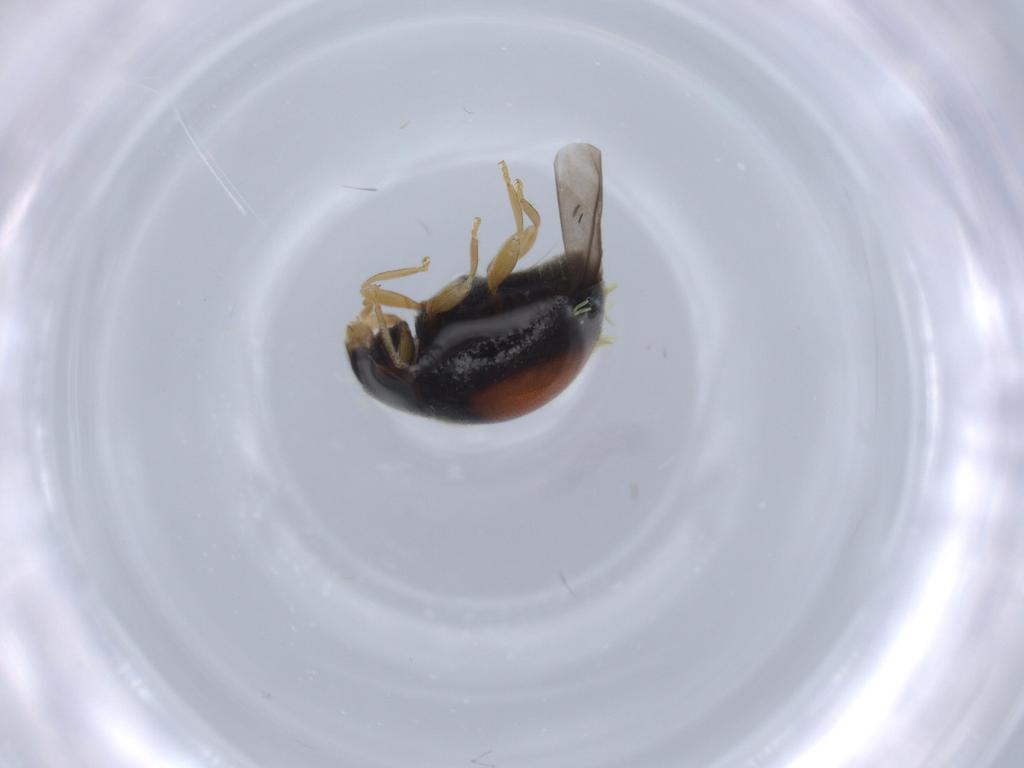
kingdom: Animalia
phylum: Arthropoda
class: Insecta
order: Coleoptera
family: Coccinellidae
